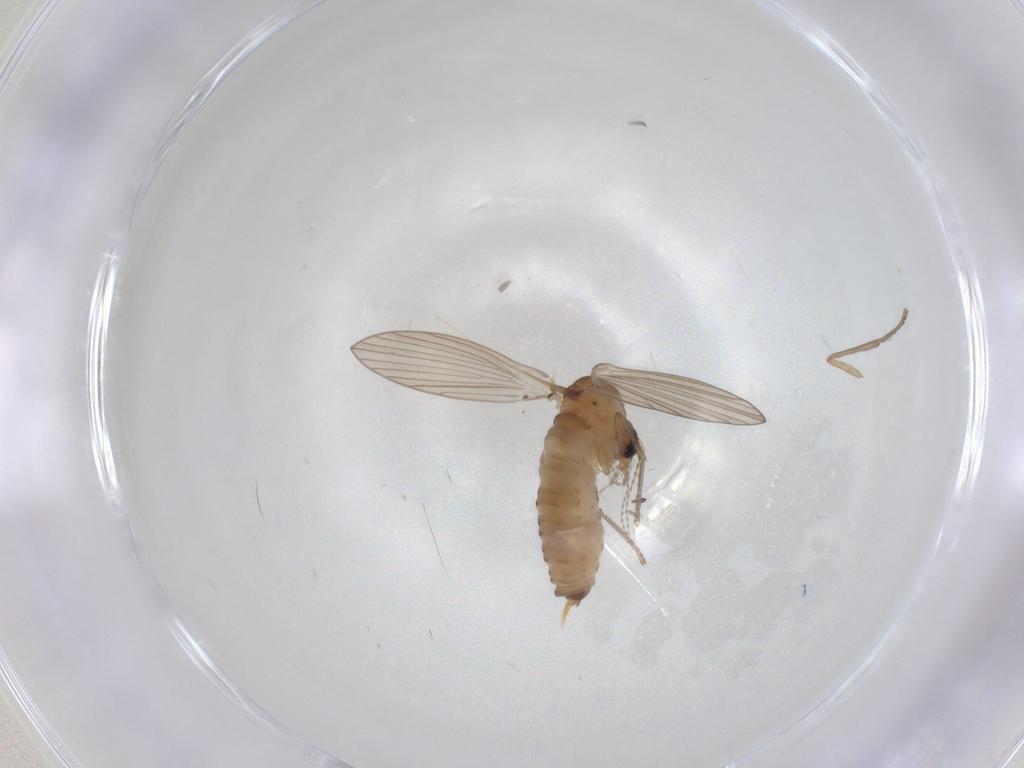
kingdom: Animalia
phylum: Arthropoda
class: Insecta
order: Diptera
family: Psychodidae
